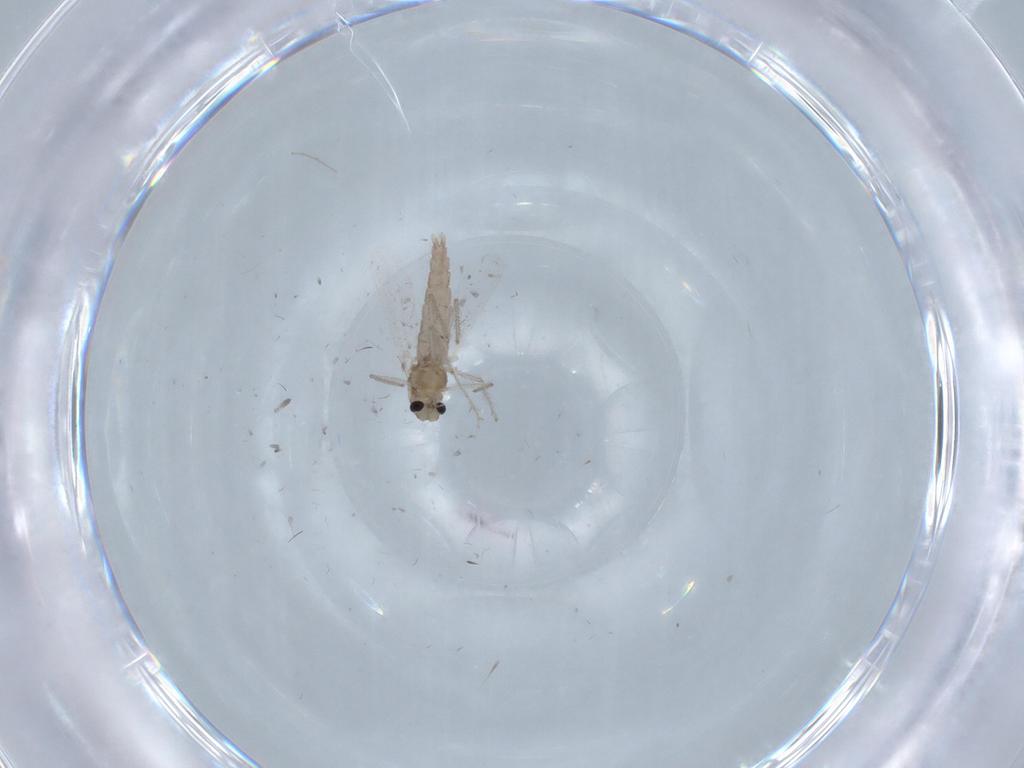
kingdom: Animalia
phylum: Arthropoda
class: Insecta
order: Diptera
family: Chironomidae
